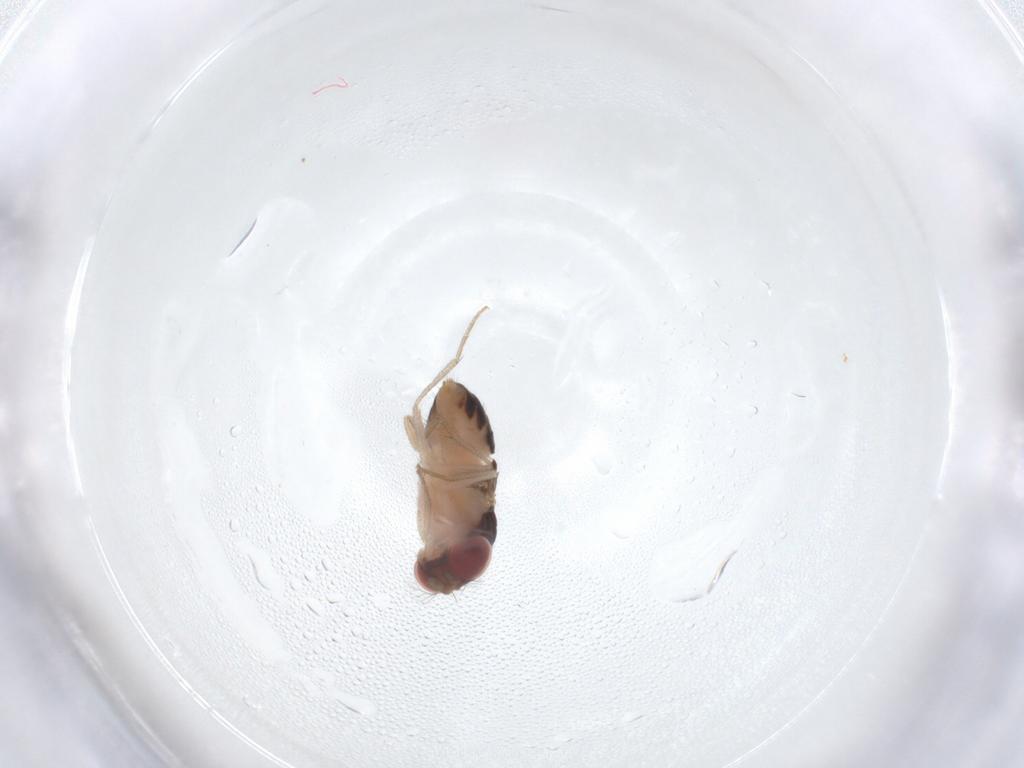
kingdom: Animalia
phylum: Arthropoda
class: Insecta
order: Diptera
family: Drosophilidae
